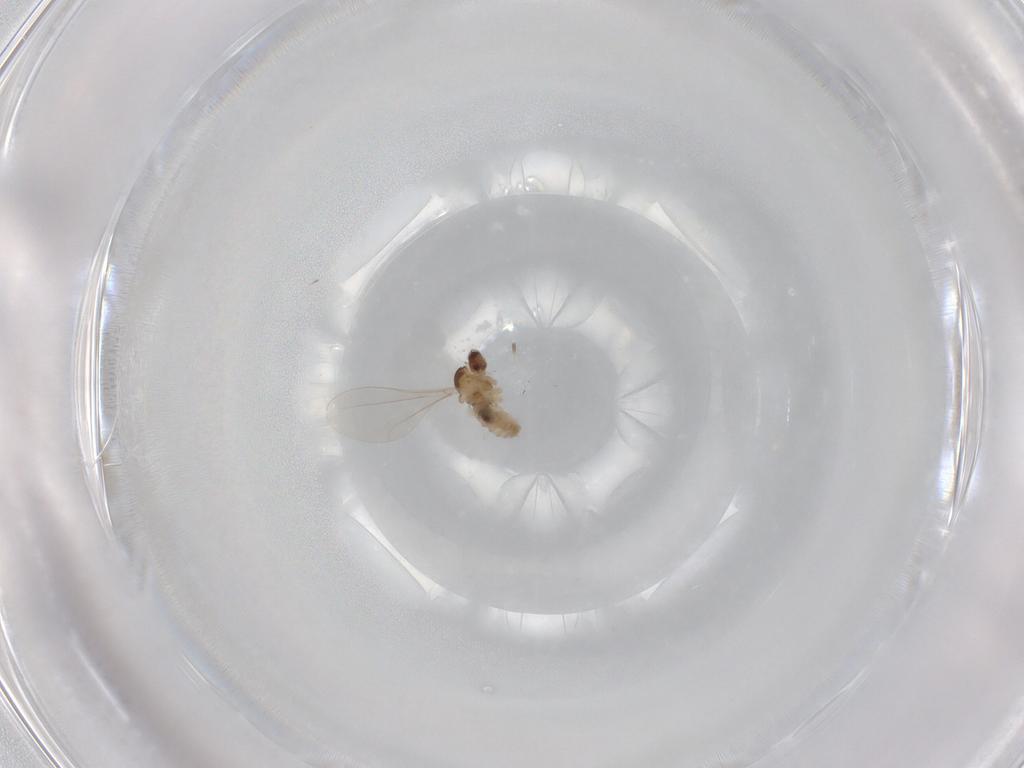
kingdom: Animalia
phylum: Arthropoda
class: Insecta
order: Diptera
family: Cecidomyiidae
